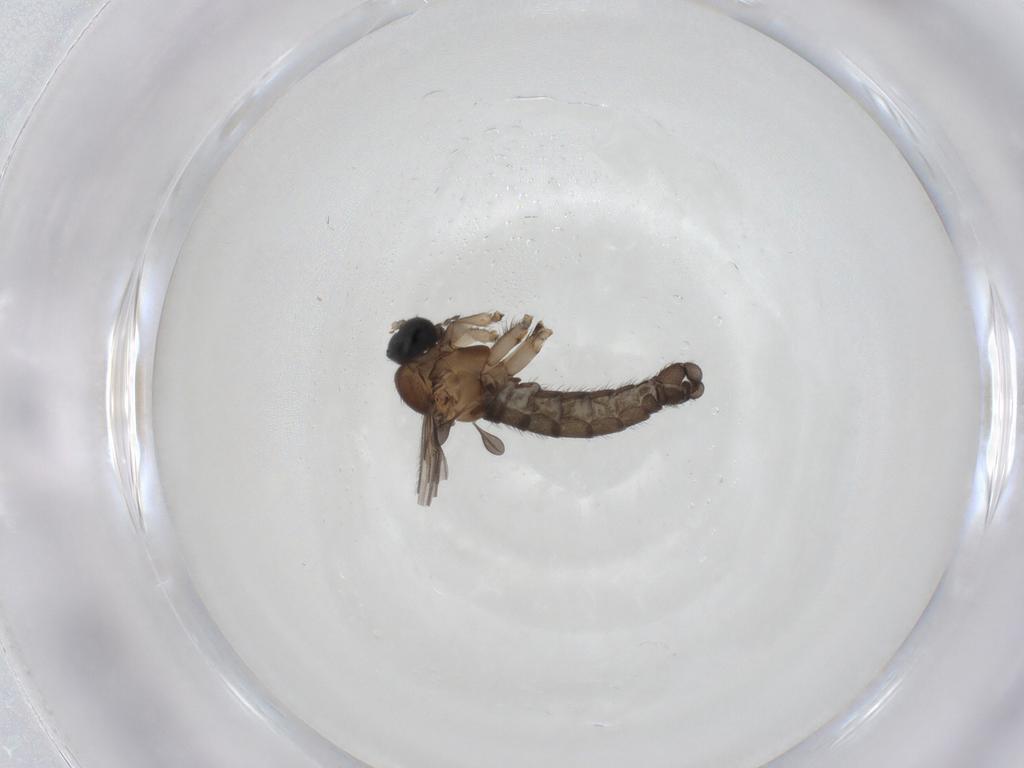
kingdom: Animalia
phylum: Arthropoda
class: Insecta
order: Diptera
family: Sciaridae
